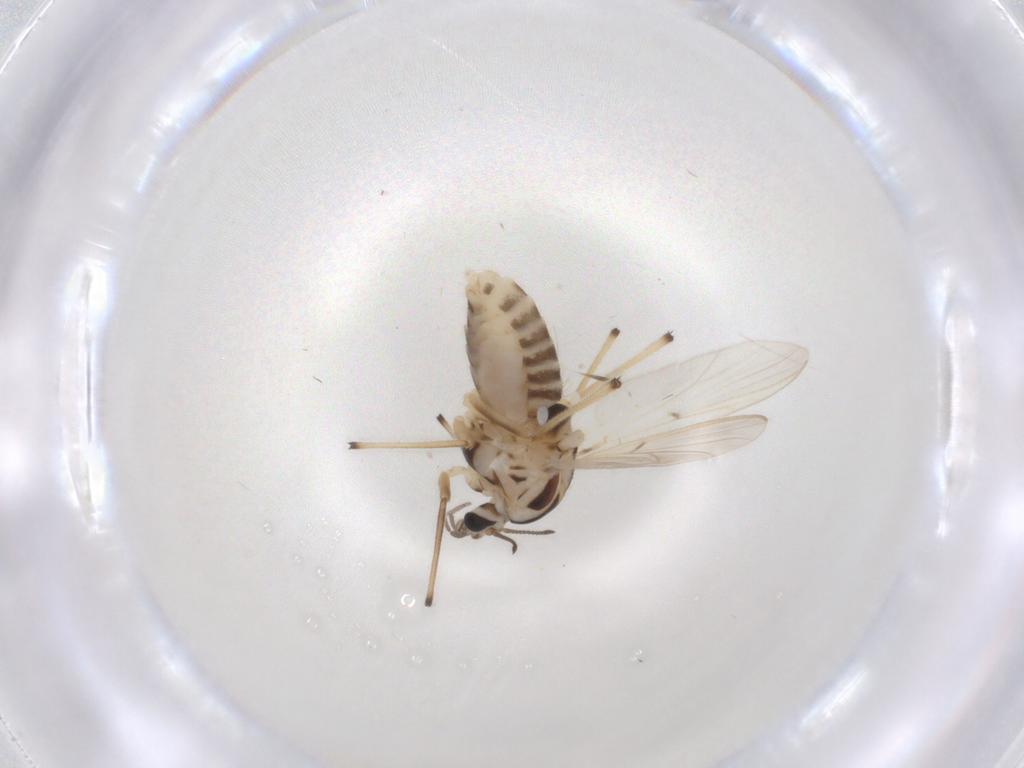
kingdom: Animalia
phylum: Arthropoda
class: Insecta
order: Diptera
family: Chironomidae
